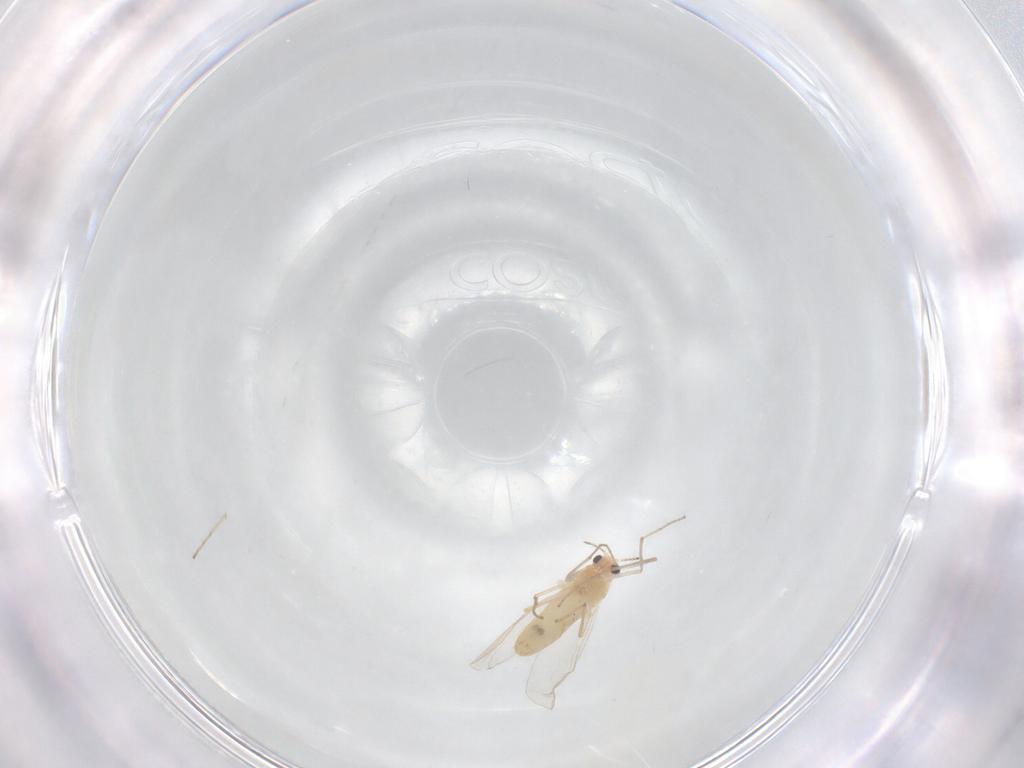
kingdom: Animalia
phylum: Arthropoda
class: Insecta
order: Diptera
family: Chironomidae
